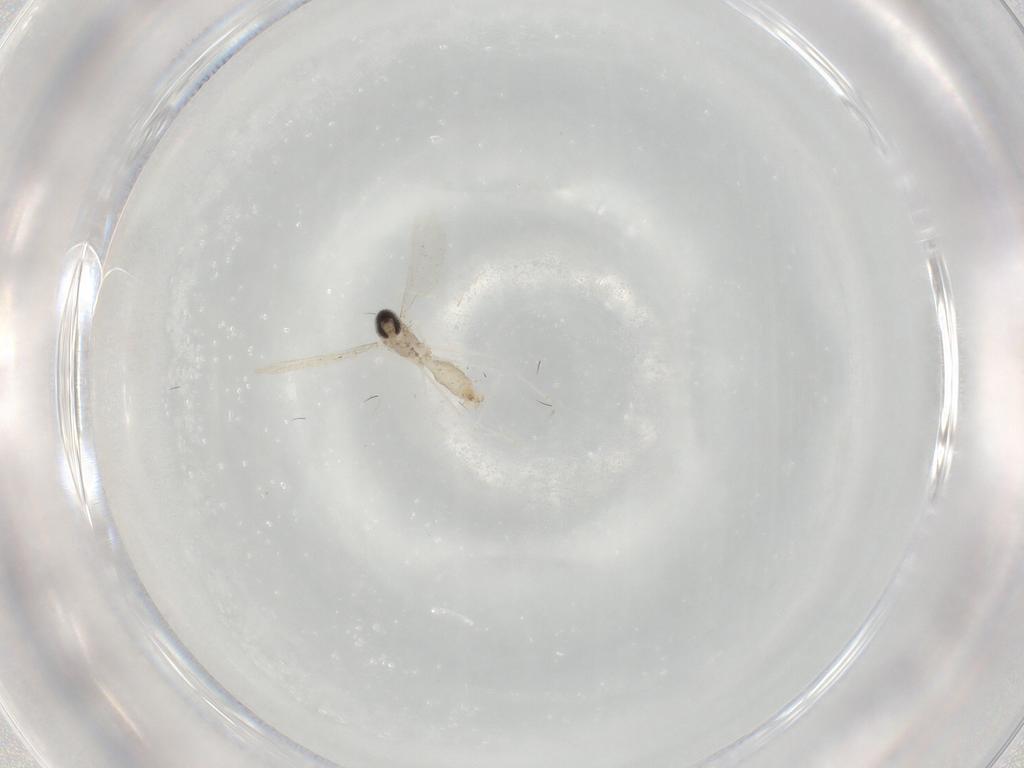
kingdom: Animalia
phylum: Arthropoda
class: Insecta
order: Diptera
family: Cecidomyiidae
